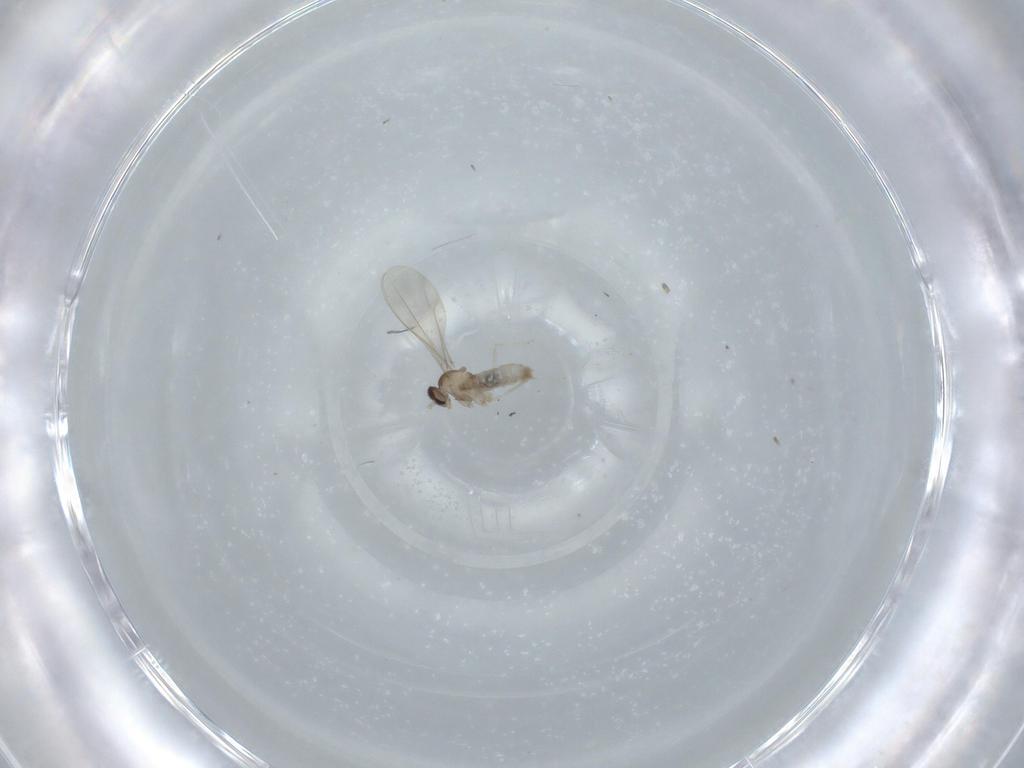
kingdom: Animalia
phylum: Arthropoda
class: Insecta
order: Diptera
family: Cecidomyiidae
